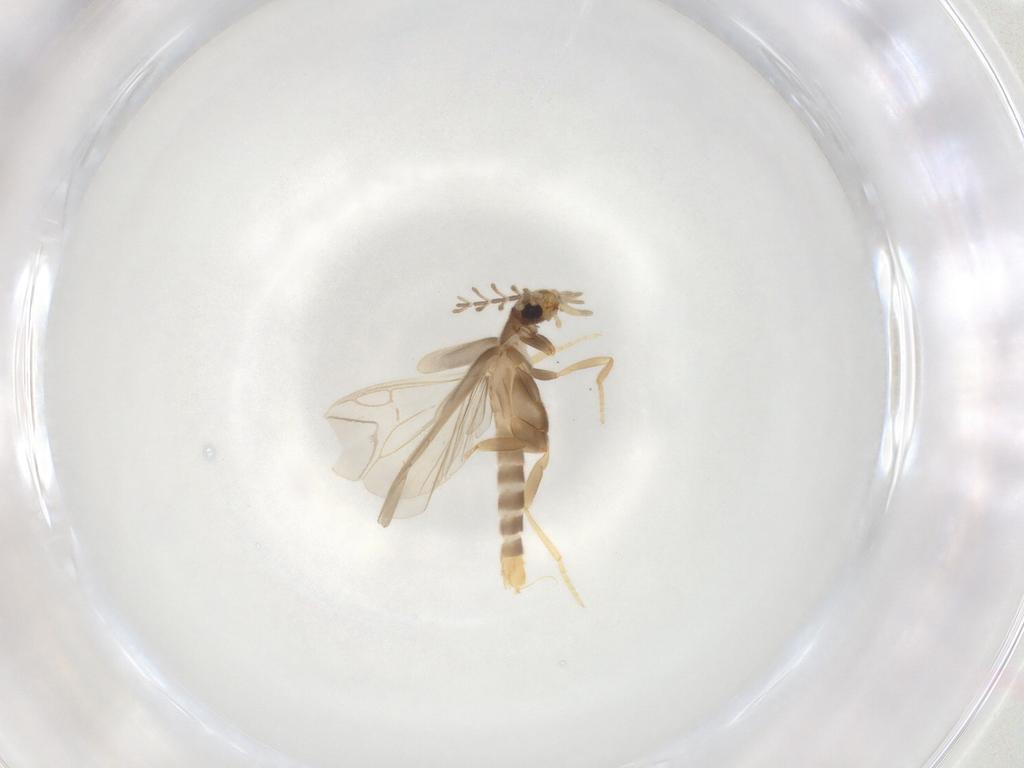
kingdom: Animalia
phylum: Arthropoda
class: Insecta
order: Coleoptera
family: Phengodidae
